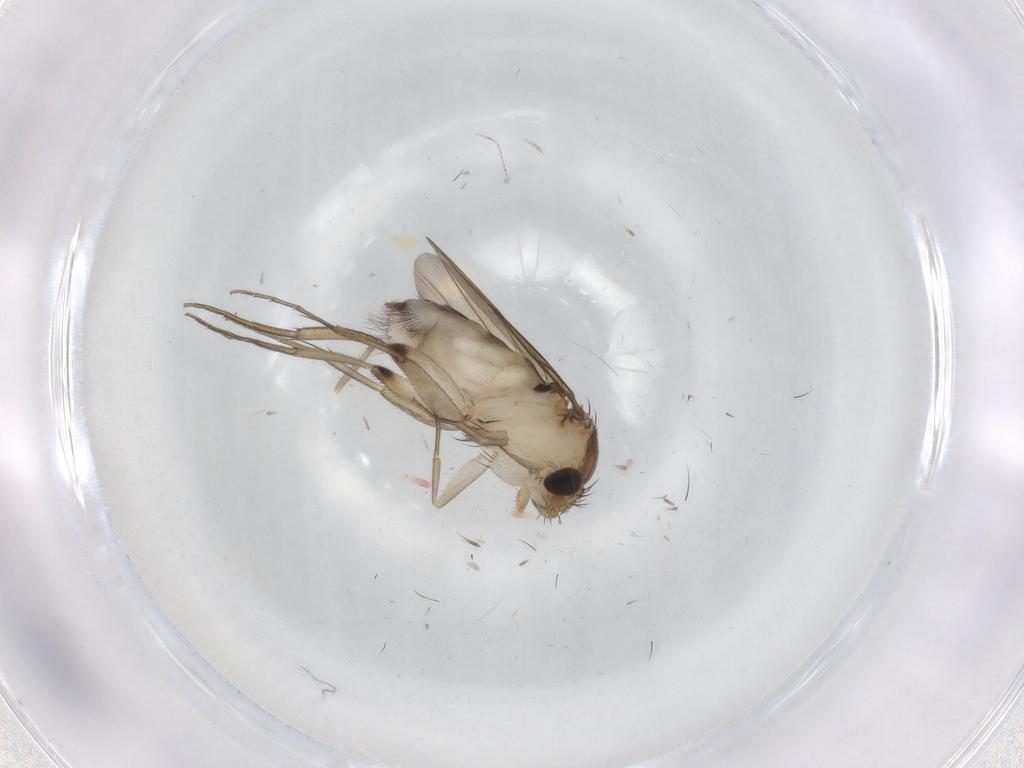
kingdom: Animalia
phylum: Arthropoda
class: Insecta
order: Diptera
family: Phoridae
